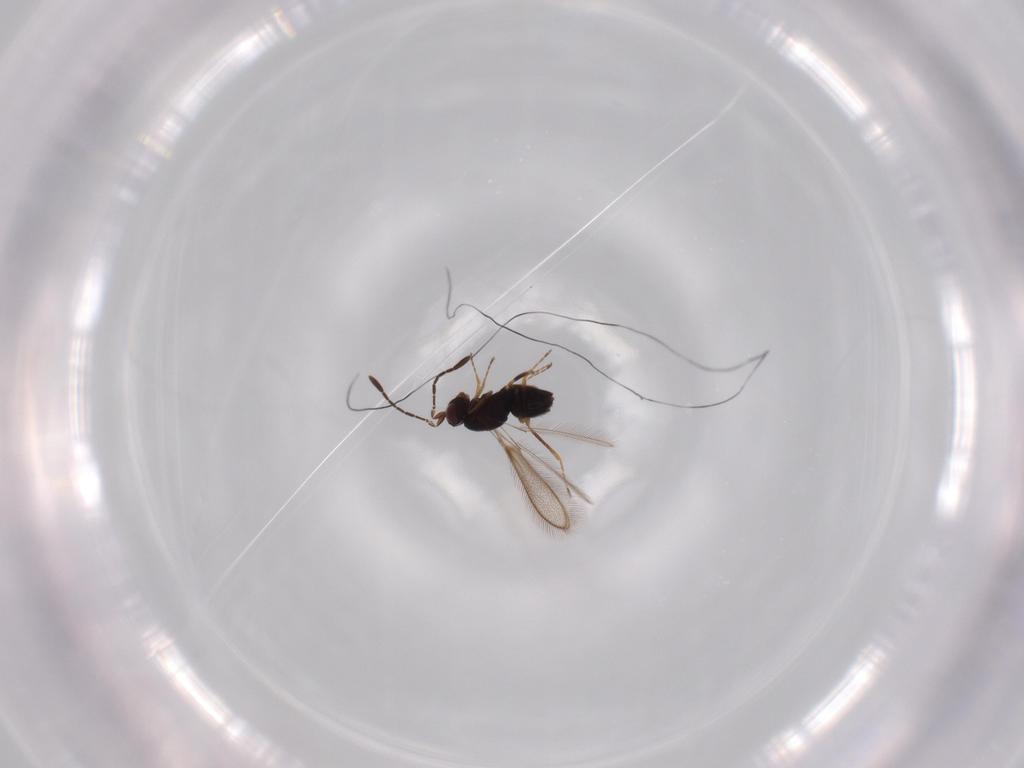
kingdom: Animalia
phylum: Arthropoda
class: Insecta
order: Hymenoptera
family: Mymaridae
